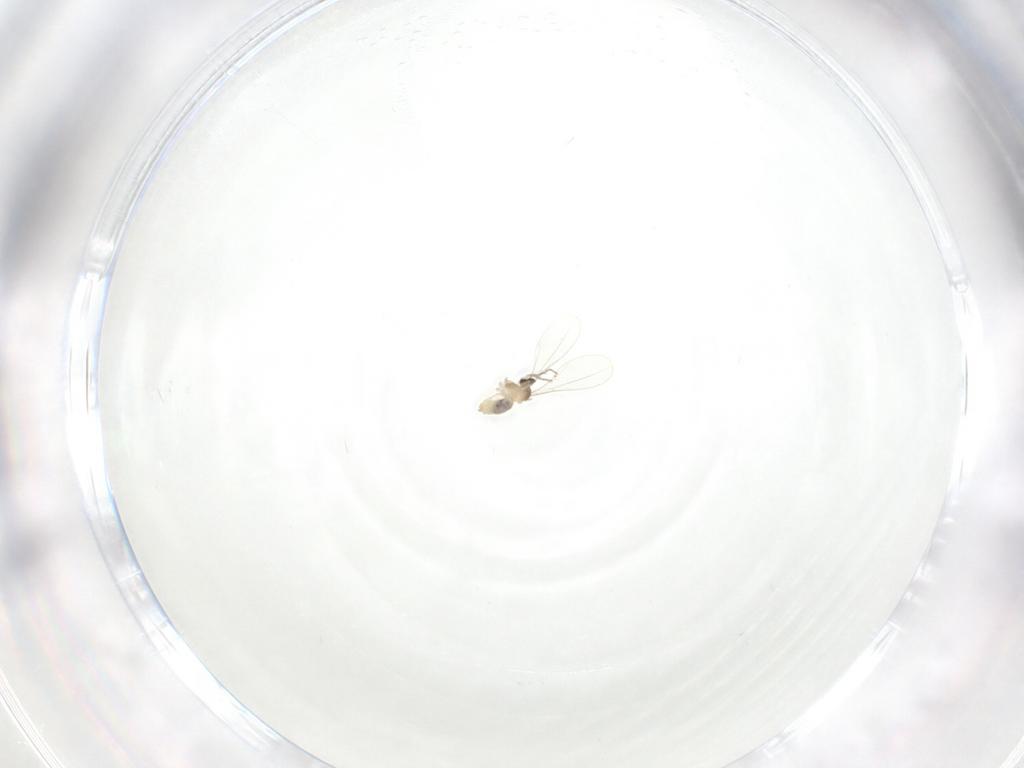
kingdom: Animalia
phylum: Arthropoda
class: Insecta
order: Diptera
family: Cecidomyiidae
